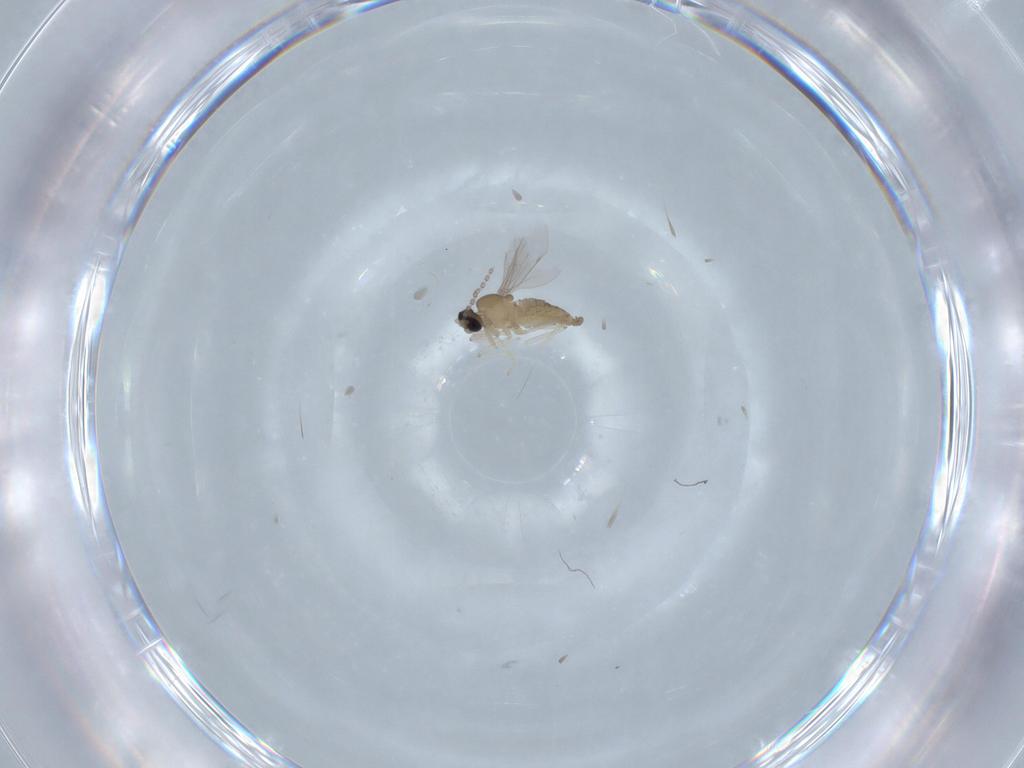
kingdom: Animalia
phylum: Arthropoda
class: Insecta
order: Diptera
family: Cecidomyiidae
